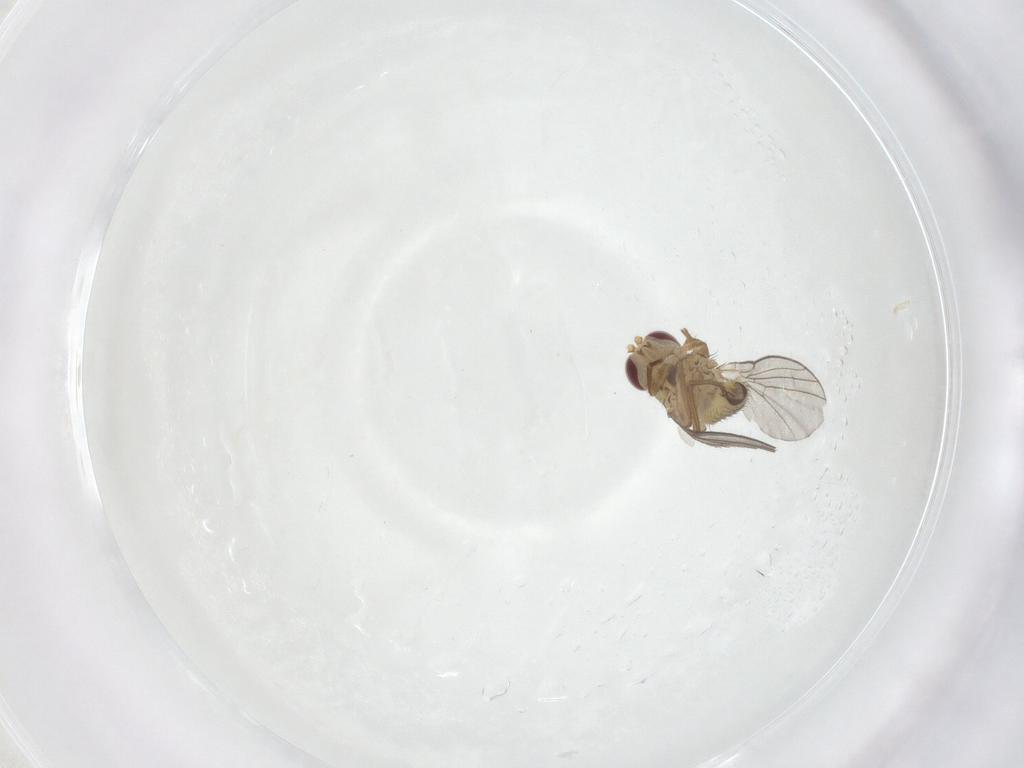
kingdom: Animalia
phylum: Arthropoda
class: Insecta
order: Diptera
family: Agromyzidae
